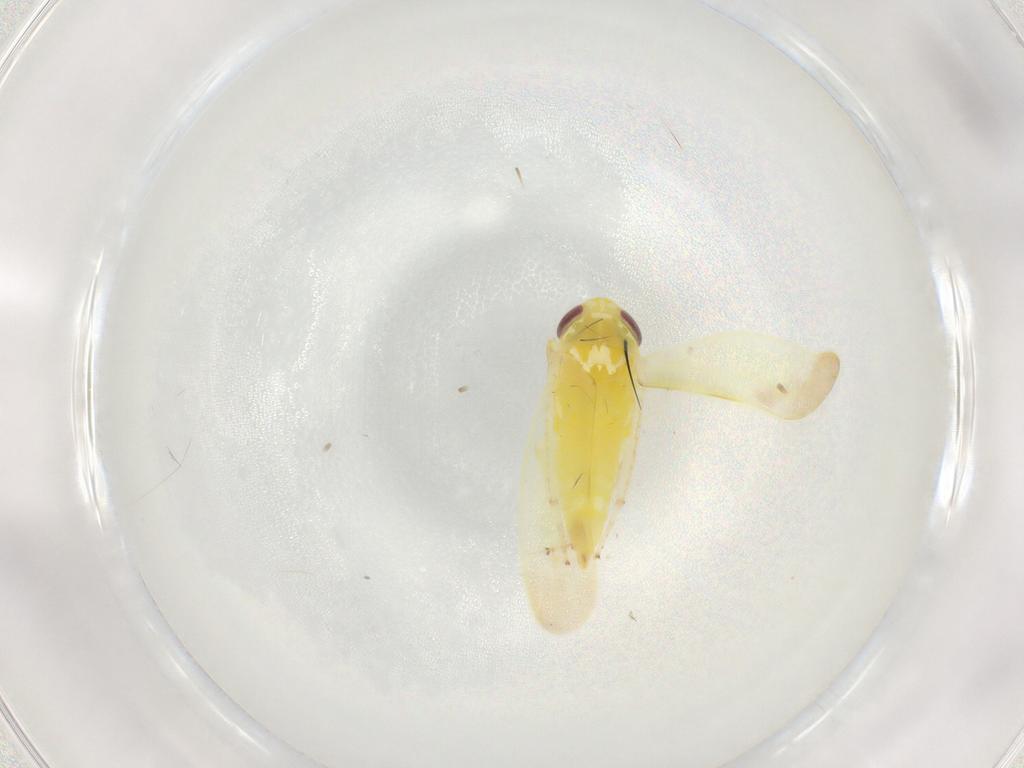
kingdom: Animalia
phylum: Arthropoda
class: Insecta
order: Hemiptera
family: Cicadellidae
